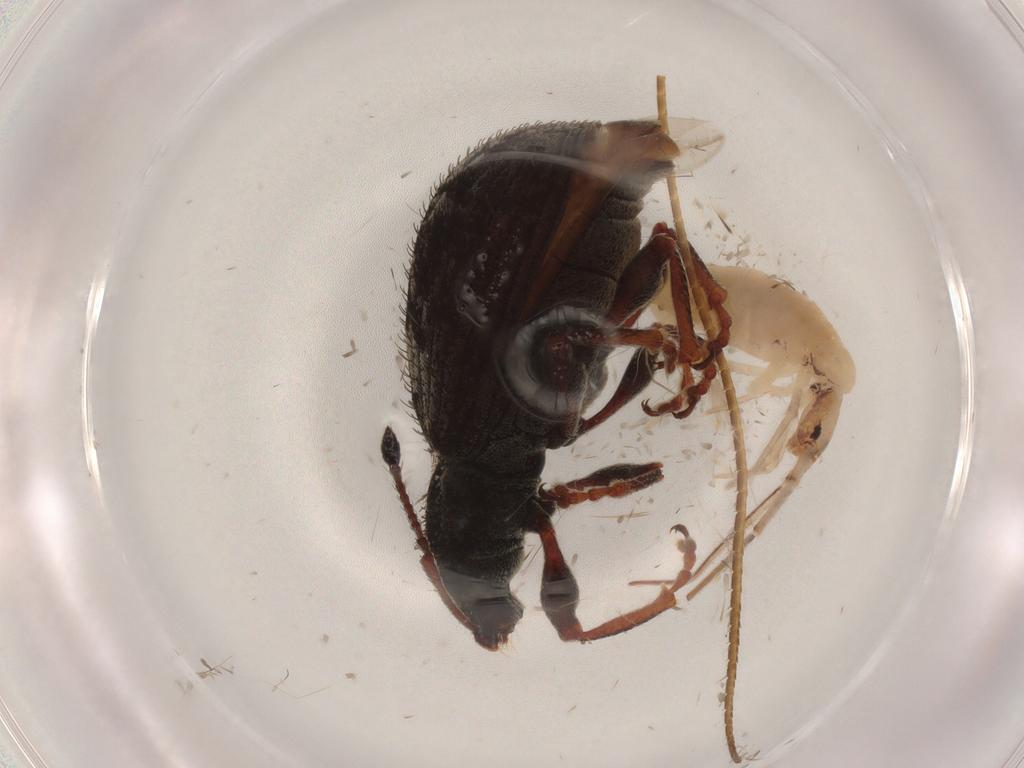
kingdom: Animalia
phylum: Arthropoda
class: Insecta
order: Coleoptera
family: Curculionidae
